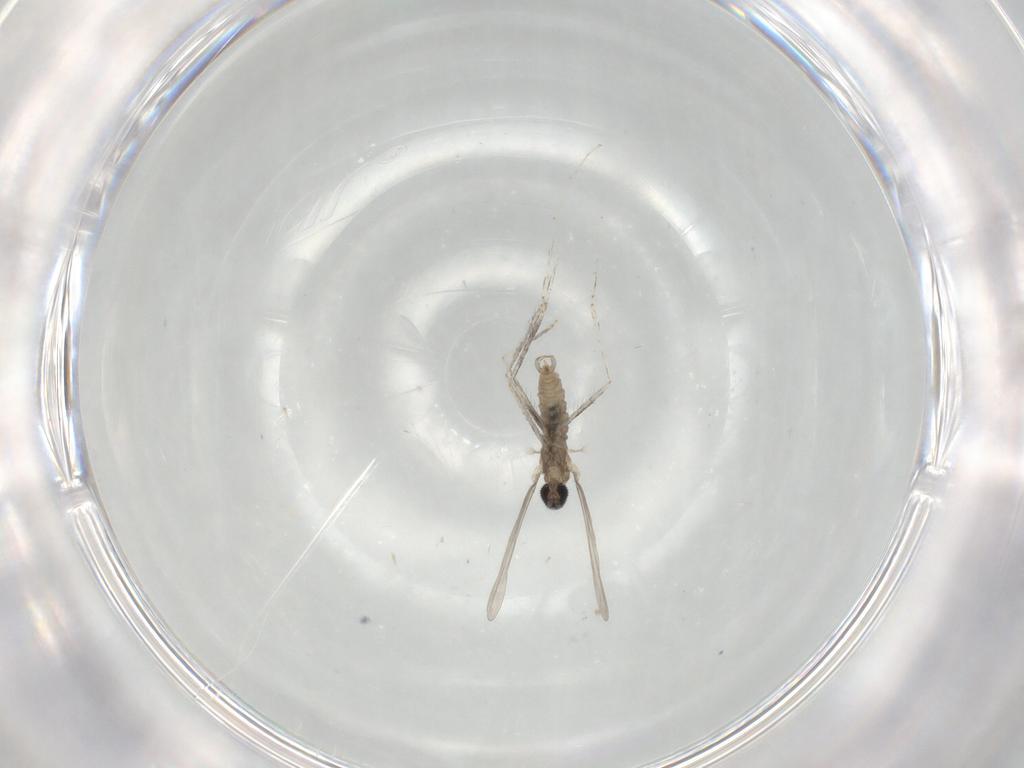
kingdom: Animalia
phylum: Arthropoda
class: Insecta
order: Diptera
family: Cecidomyiidae
